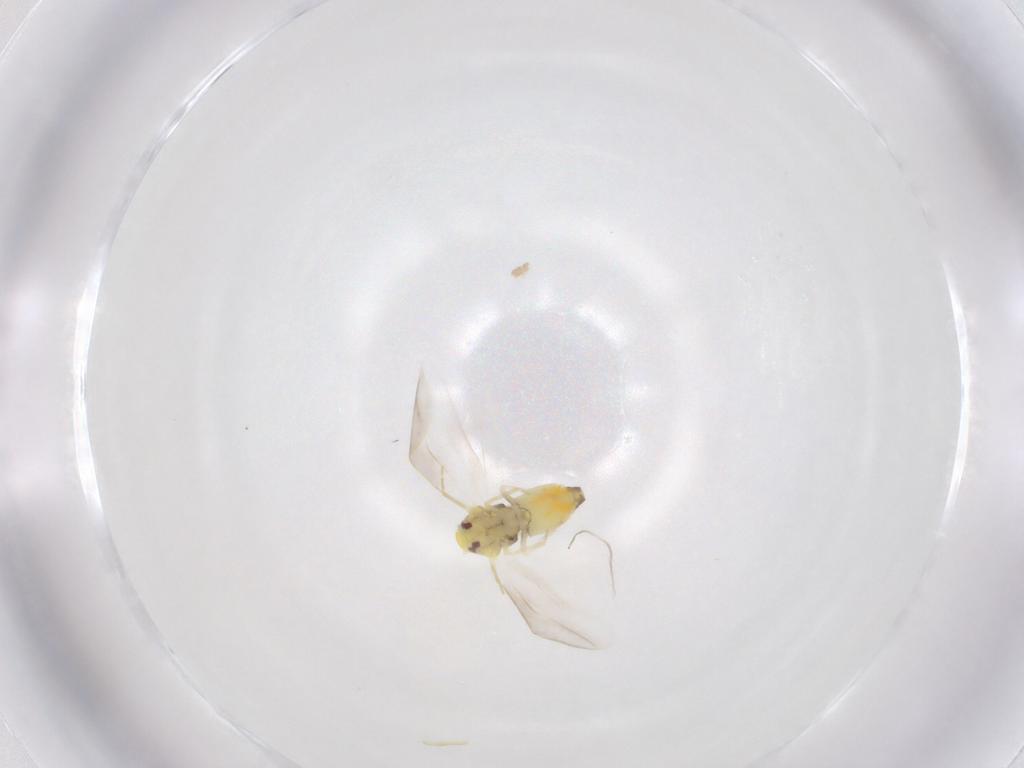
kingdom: Animalia
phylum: Arthropoda
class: Insecta
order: Hemiptera
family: Aleyrodidae
